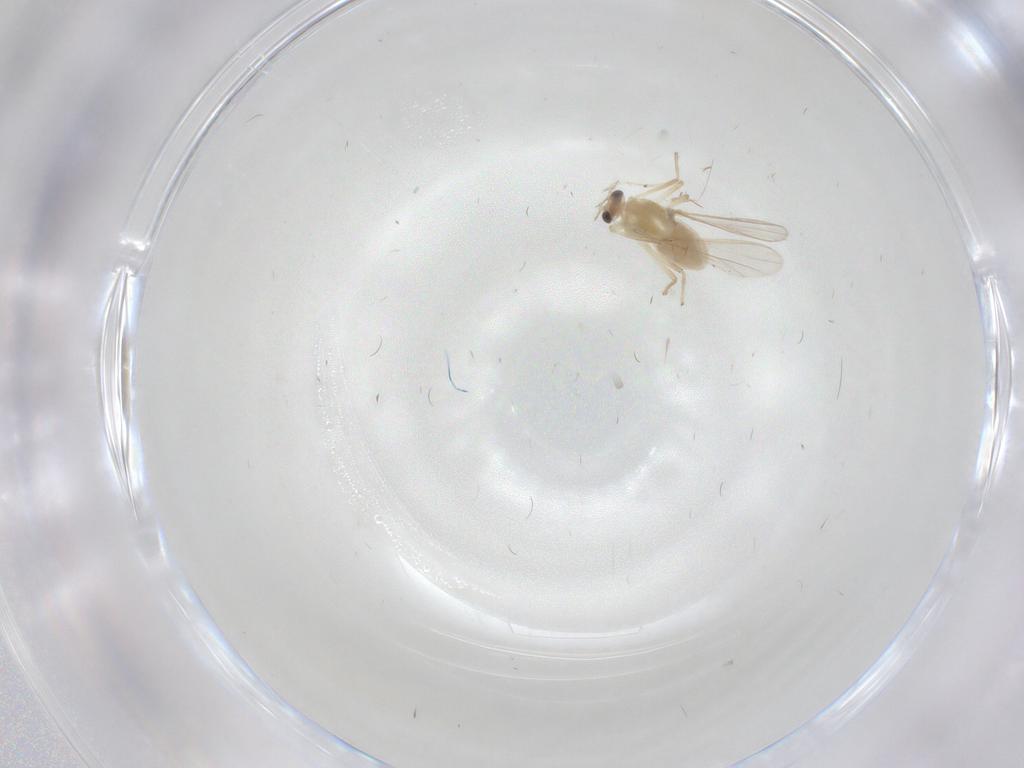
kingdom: Animalia
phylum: Arthropoda
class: Insecta
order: Diptera
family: Chironomidae
